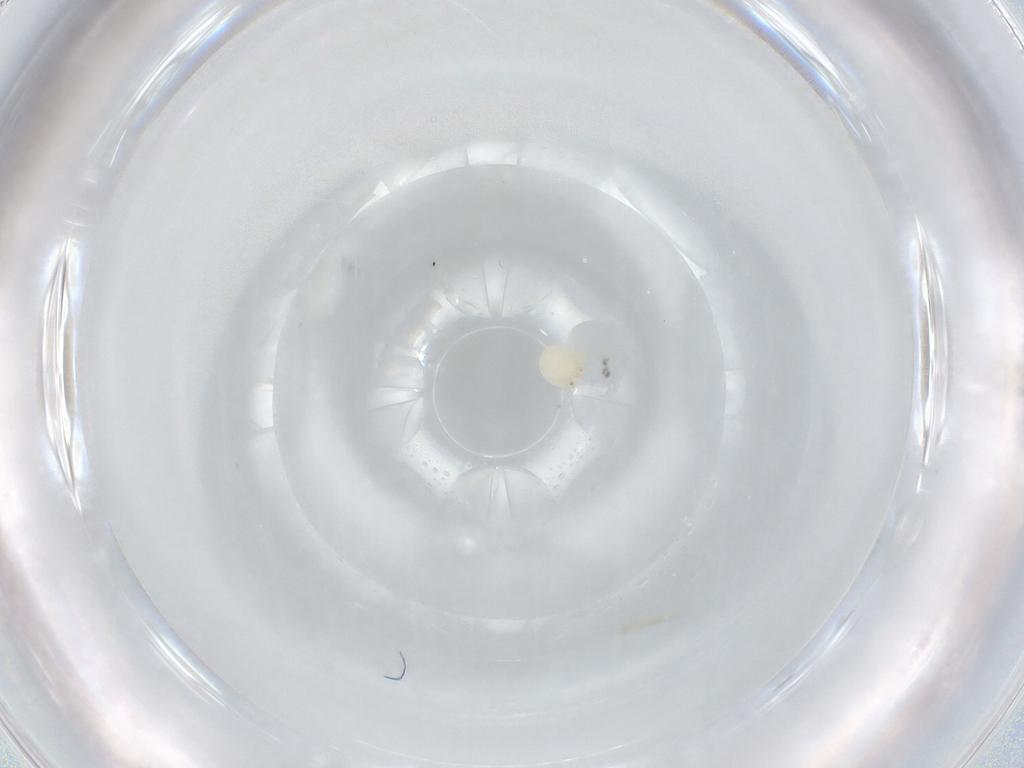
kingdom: Animalia
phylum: Arthropoda
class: Arachnida
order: Trombidiformes
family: Arrenuridae
